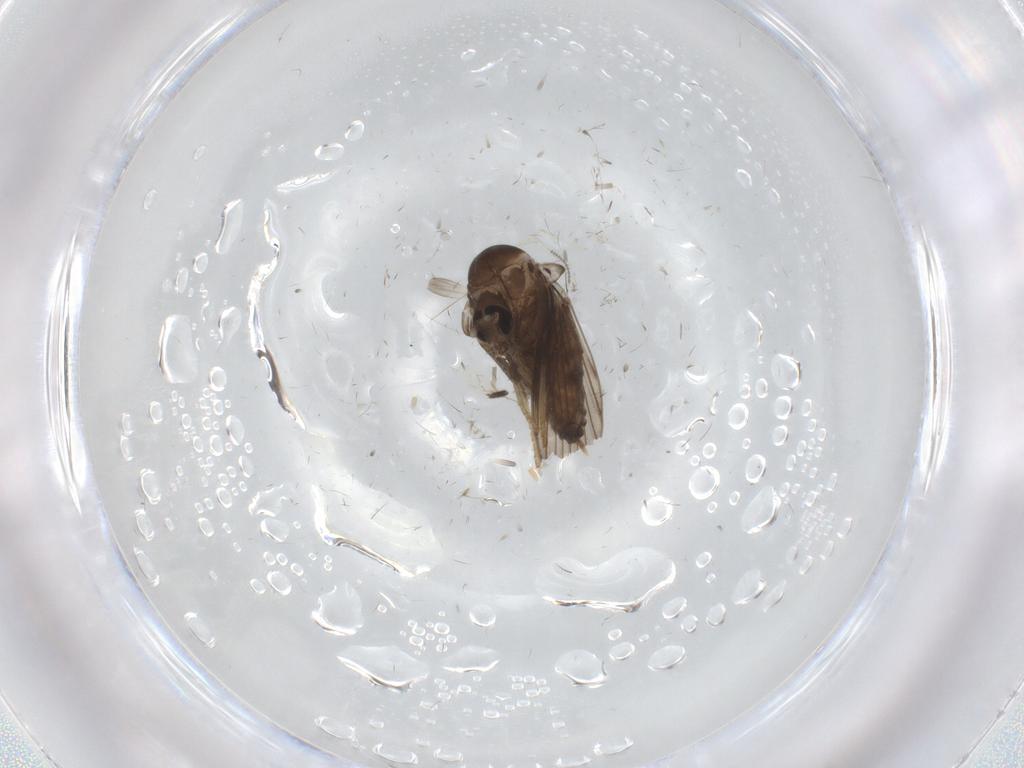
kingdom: Animalia
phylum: Arthropoda
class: Insecta
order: Diptera
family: Psychodidae
